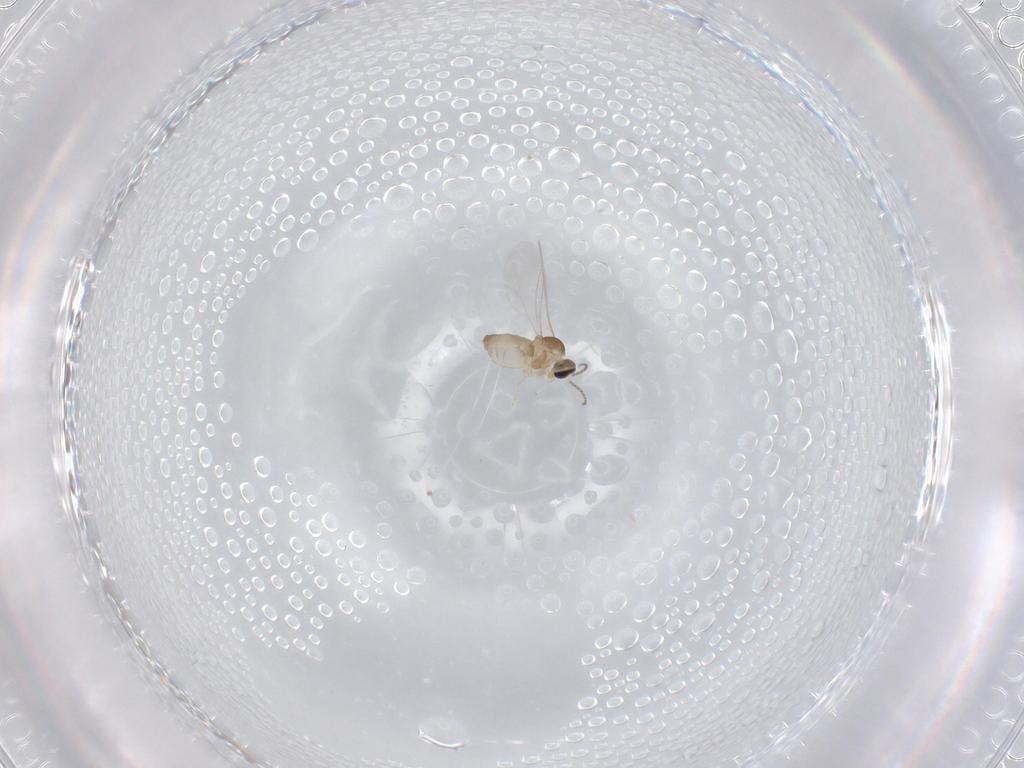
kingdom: Animalia
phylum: Arthropoda
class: Insecta
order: Diptera
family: Cecidomyiidae
